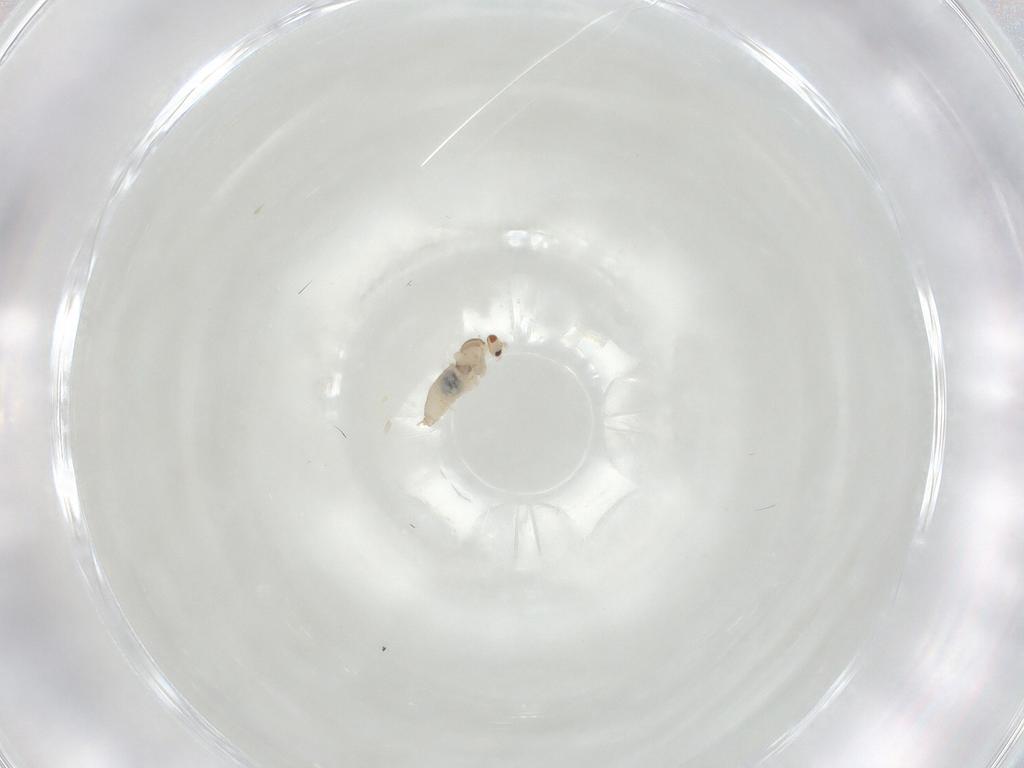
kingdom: Animalia
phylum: Arthropoda
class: Insecta
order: Diptera
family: Cecidomyiidae
